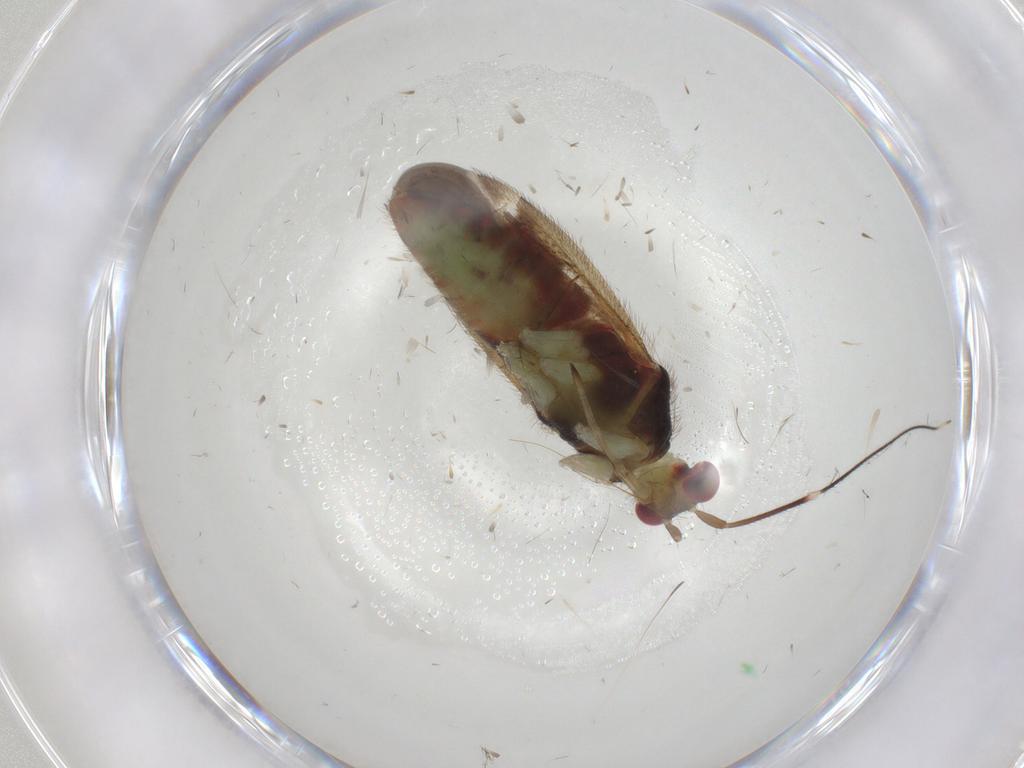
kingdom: Animalia
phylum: Arthropoda
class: Insecta
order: Hemiptera
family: Miridae
